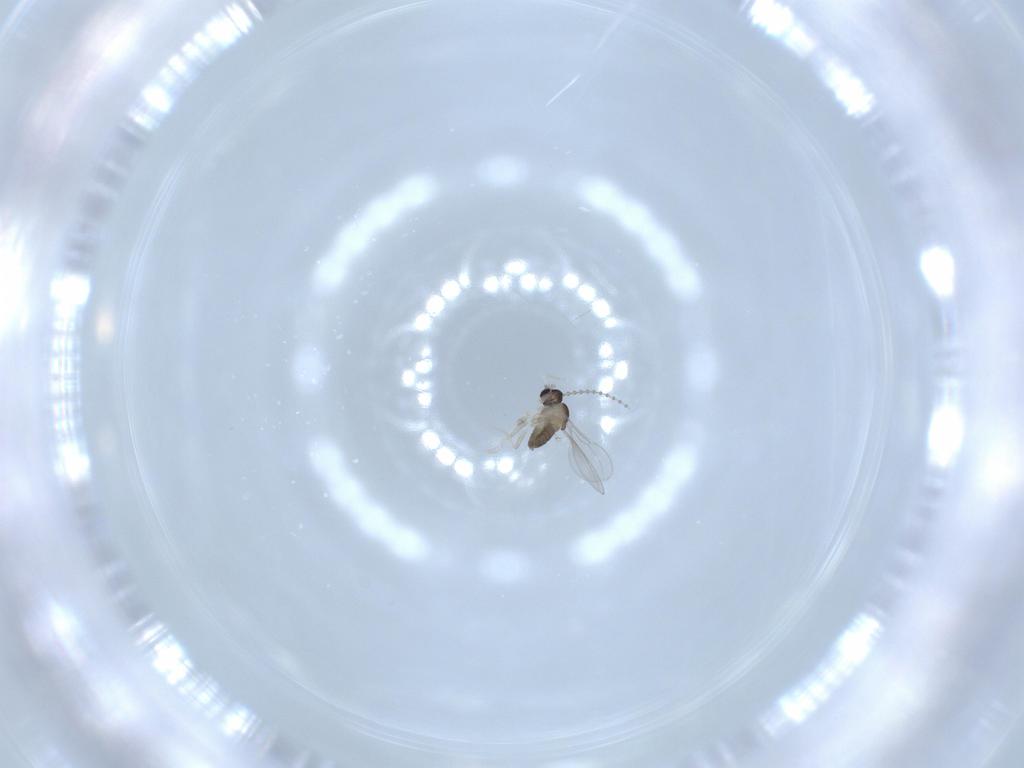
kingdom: Animalia
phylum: Arthropoda
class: Insecta
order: Diptera
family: Cecidomyiidae
